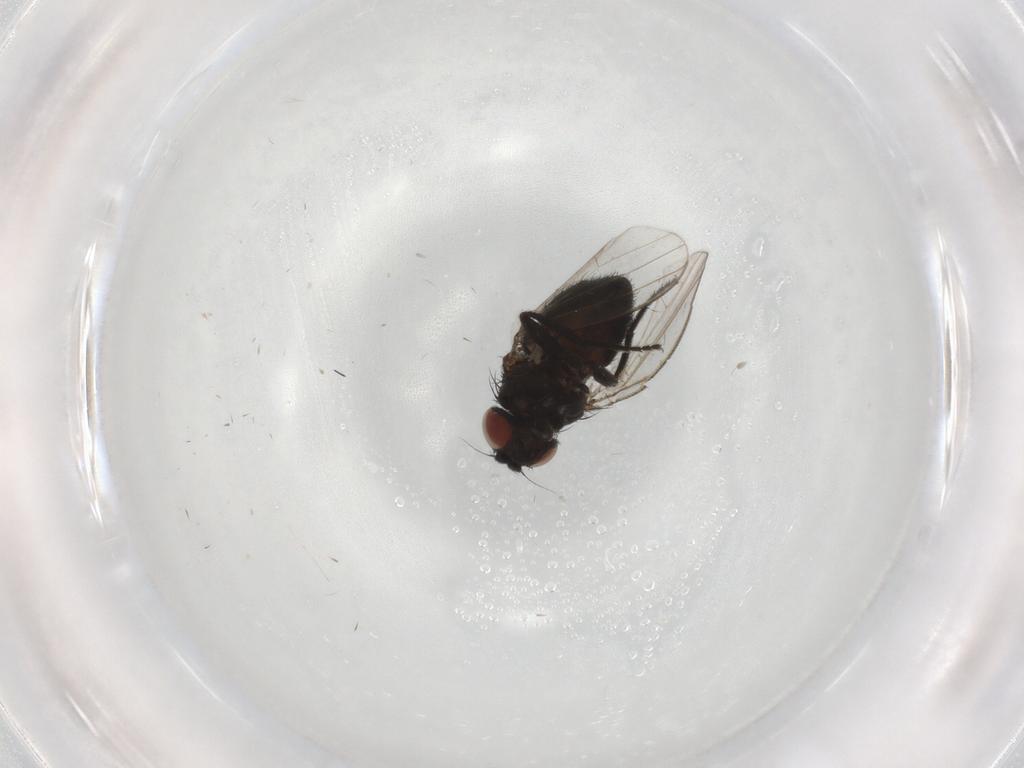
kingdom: Animalia
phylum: Arthropoda
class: Insecta
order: Diptera
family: Milichiidae
